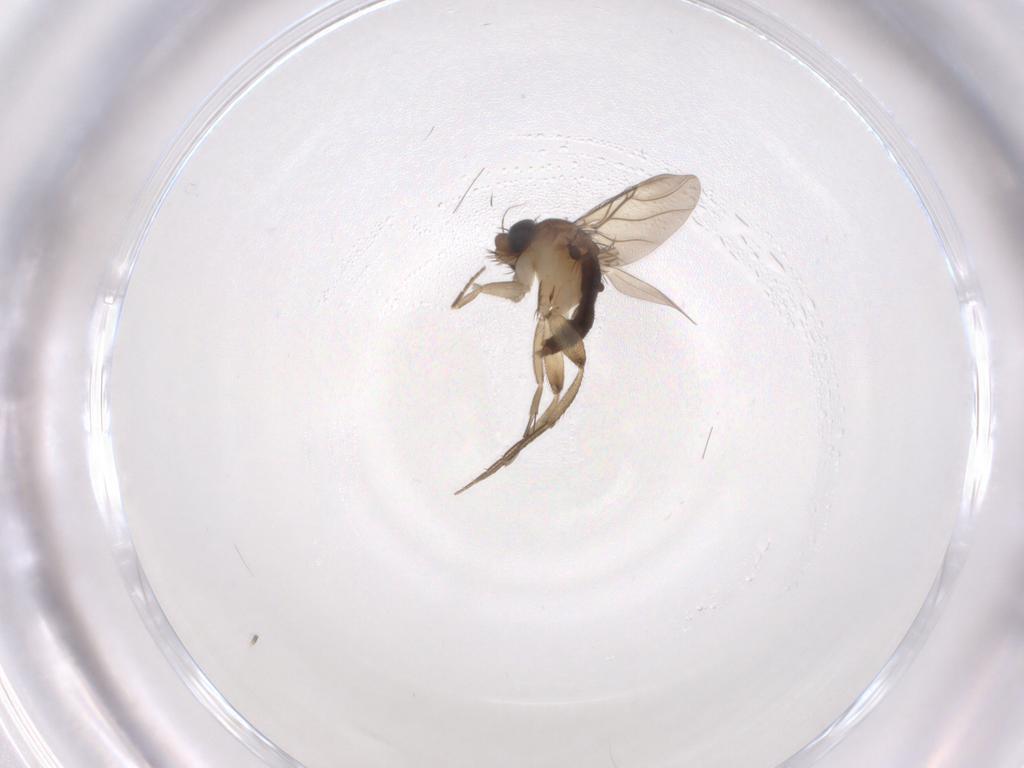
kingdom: Animalia
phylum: Arthropoda
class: Insecta
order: Diptera
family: Phoridae
